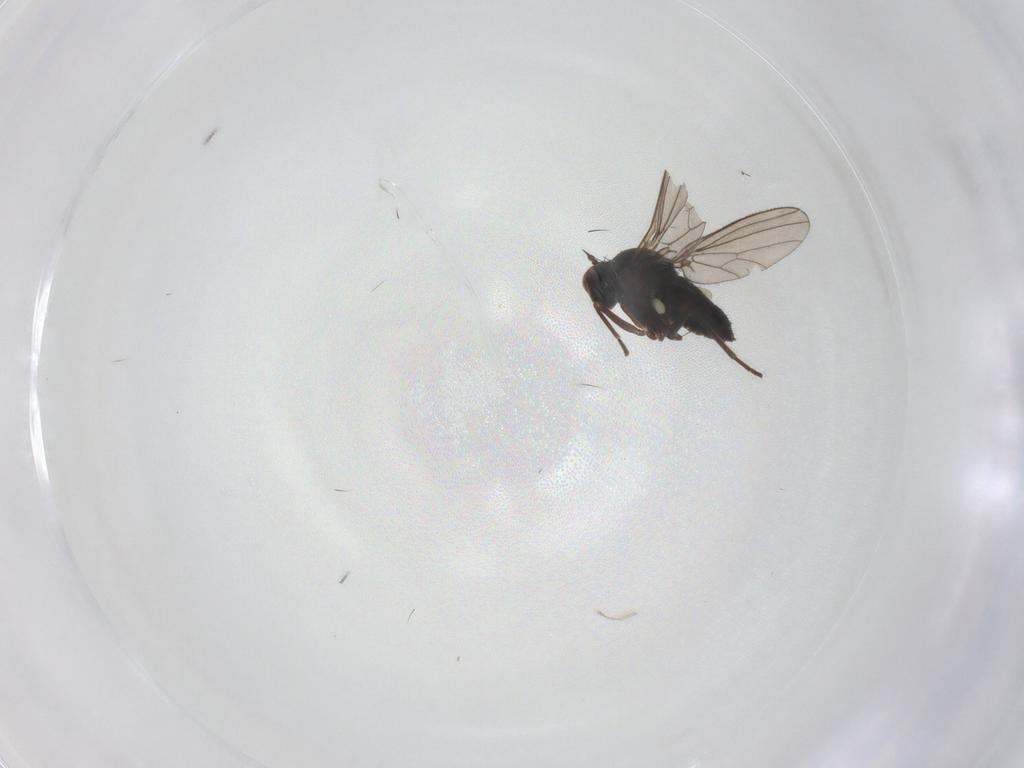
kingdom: Animalia
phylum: Arthropoda
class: Insecta
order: Diptera
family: Dolichopodidae
